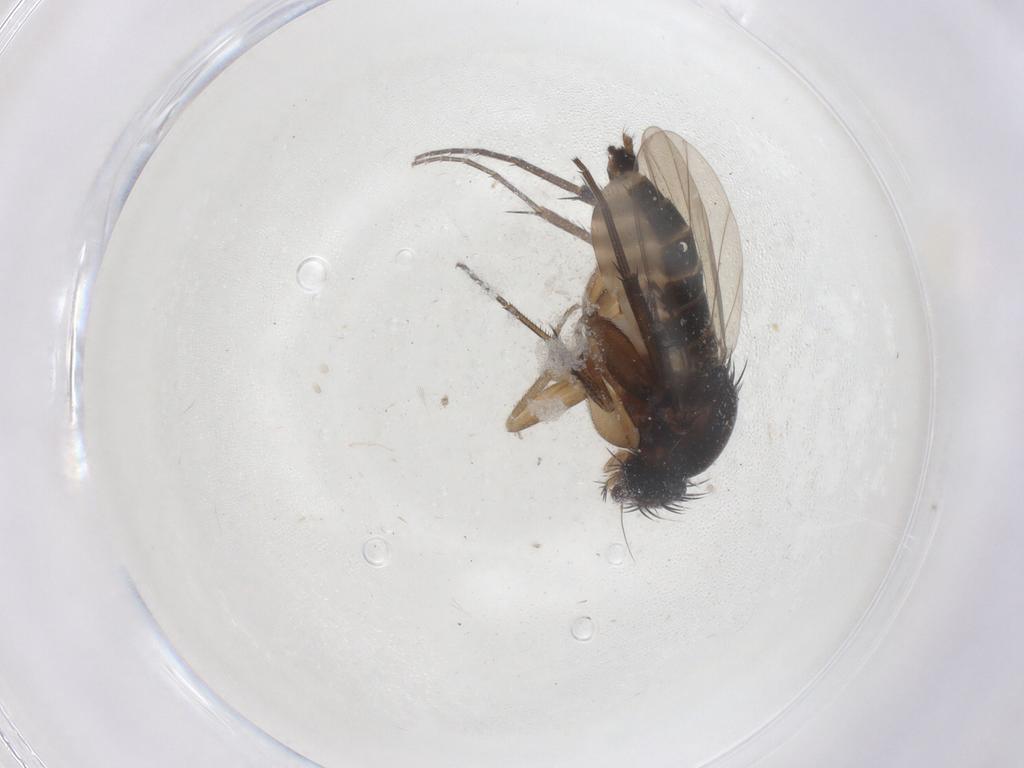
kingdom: Animalia
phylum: Arthropoda
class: Insecta
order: Diptera
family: Phoridae
